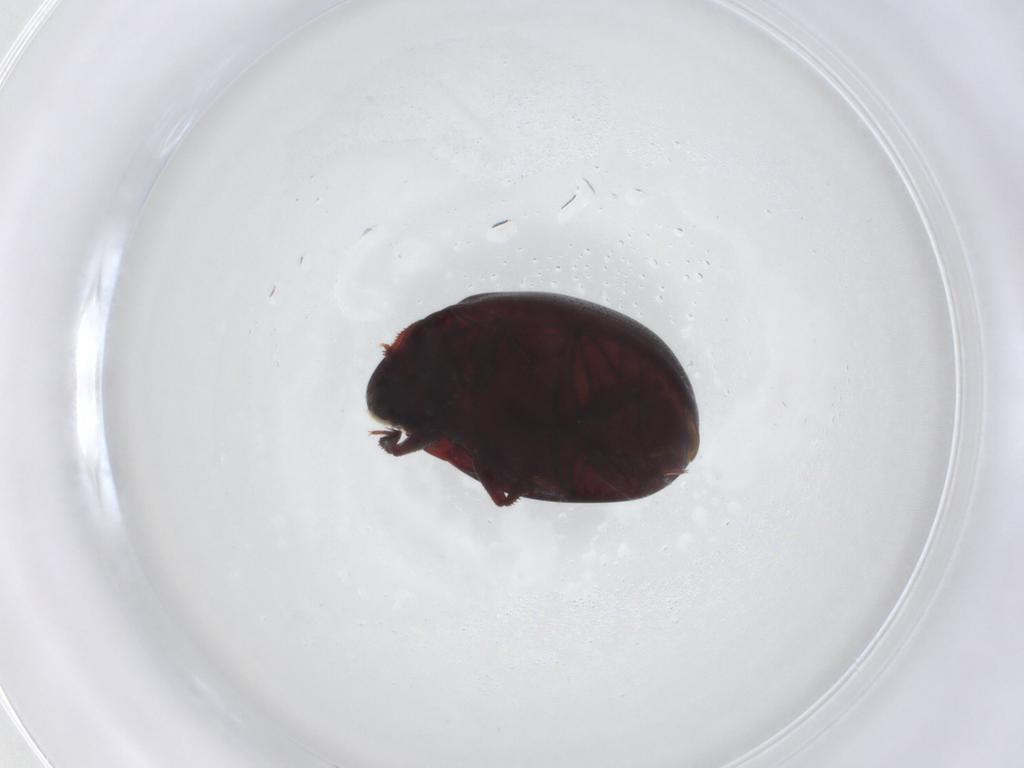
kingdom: Animalia
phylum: Arthropoda
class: Insecta
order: Coleoptera
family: Nosodendridae
